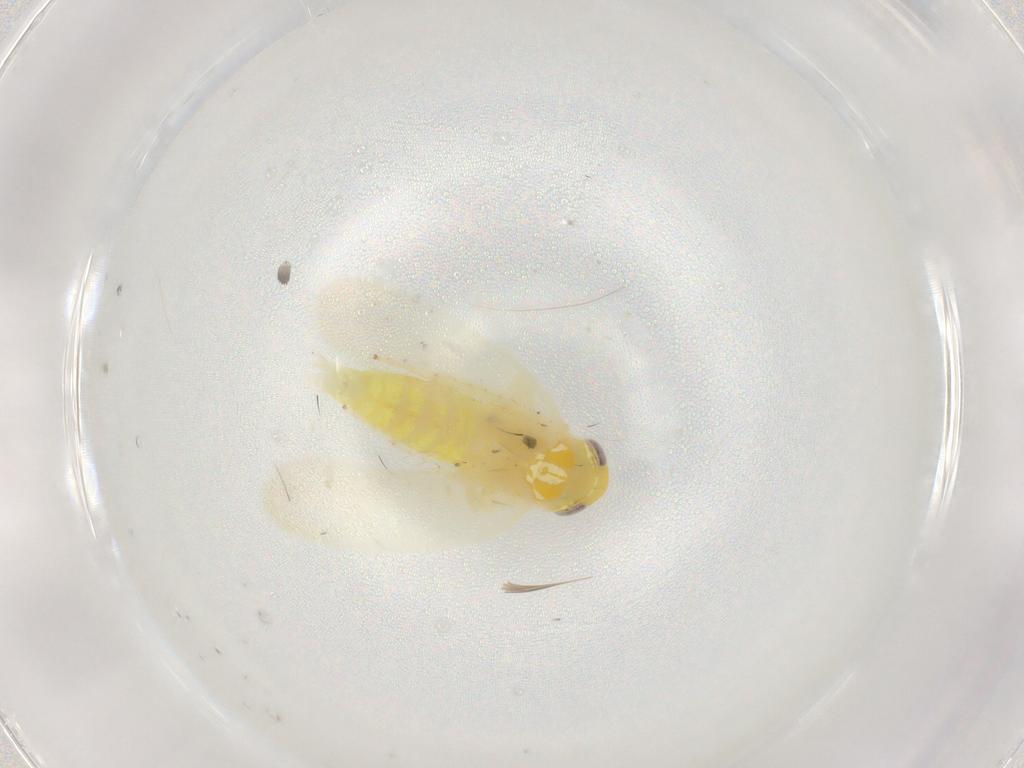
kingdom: Animalia
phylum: Arthropoda
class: Insecta
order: Hemiptera
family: Cicadellidae
